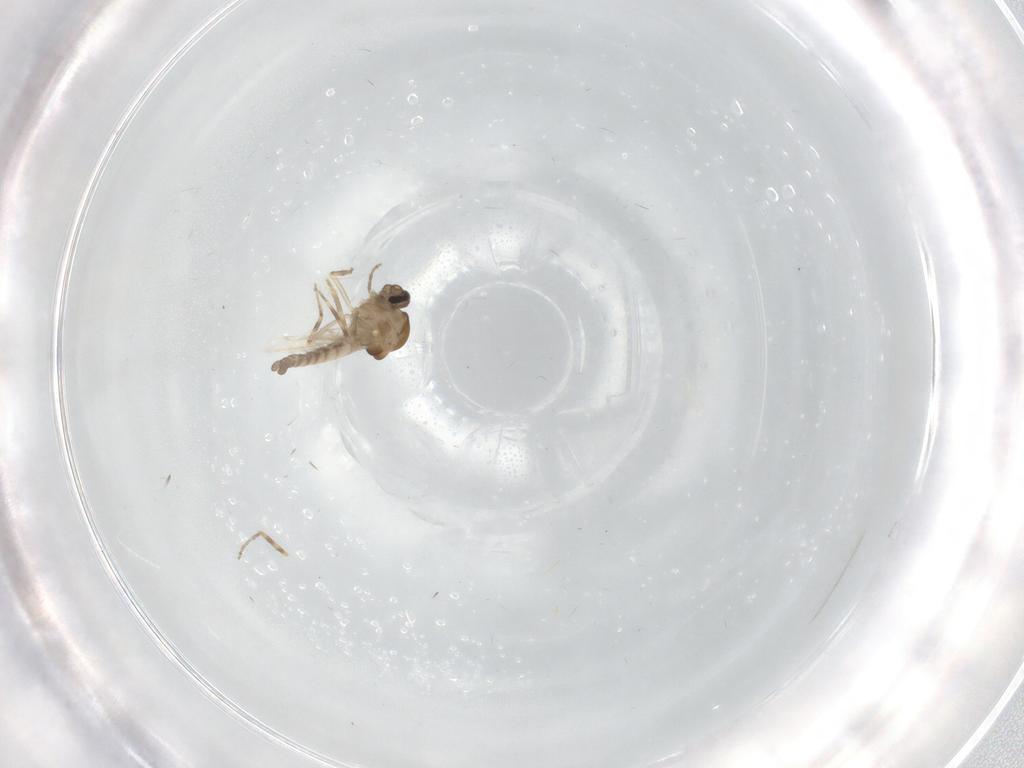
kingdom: Animalia
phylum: Arthropoda
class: Insecta
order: Diptera
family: Ceratopogonidae
